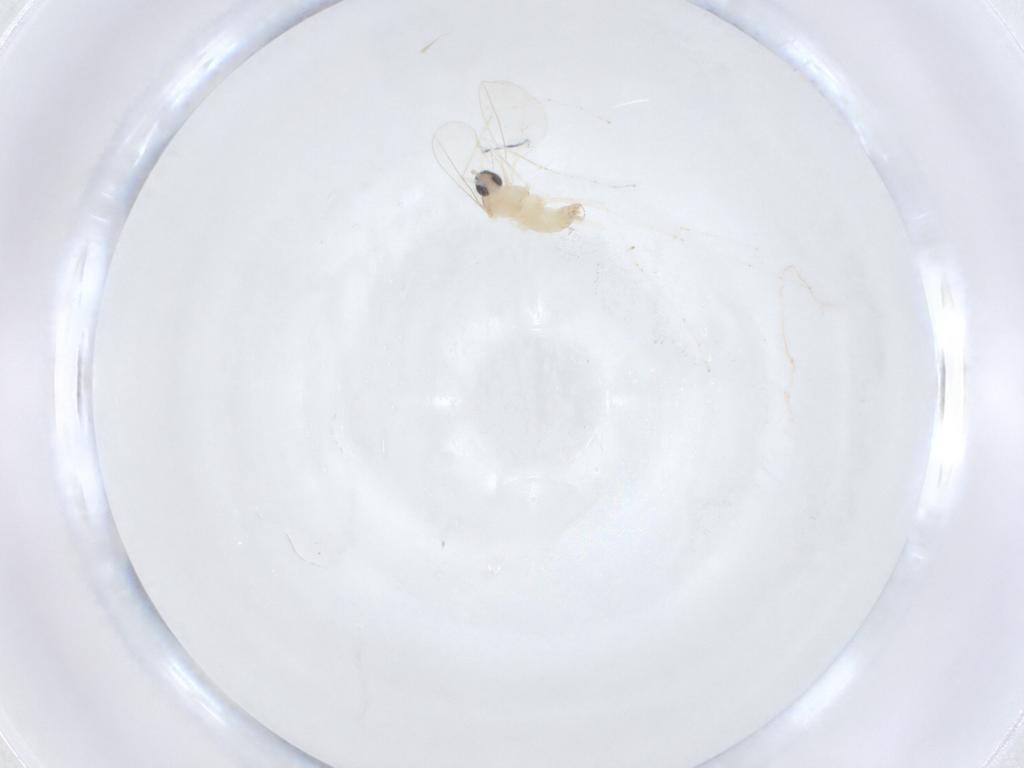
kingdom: Animalia
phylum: Arthropoda
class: Insecta
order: Diptera
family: Cecidomyiidae
